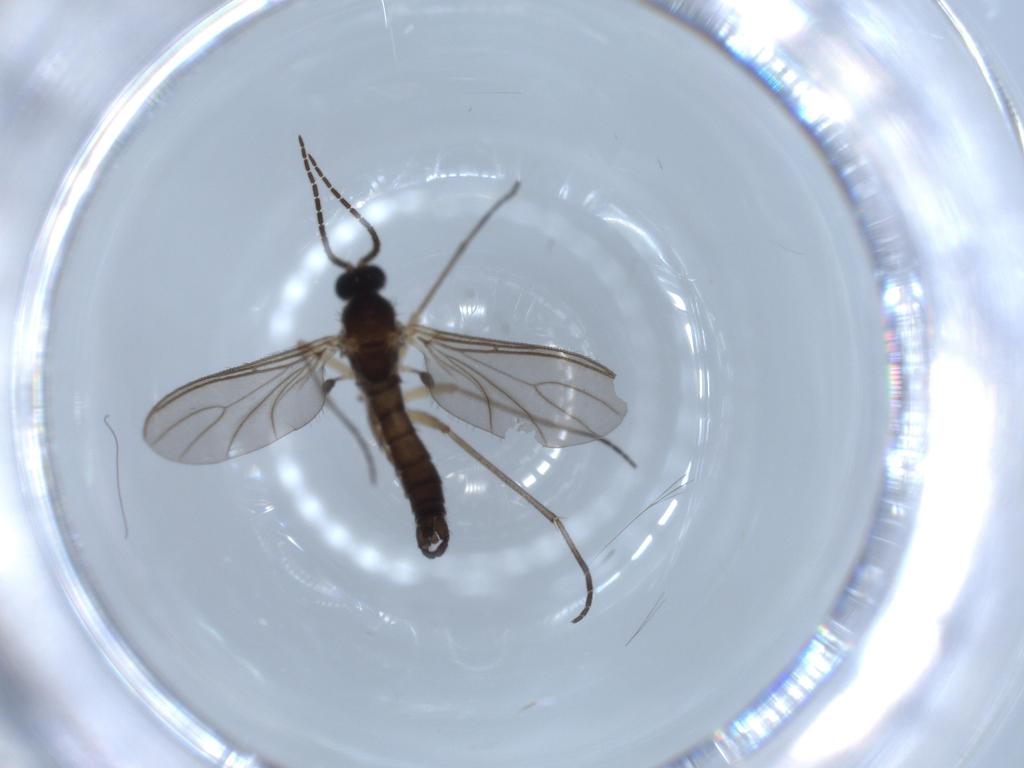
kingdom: Animalia
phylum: Arthropoda
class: Insecta
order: Diptera
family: Sciaridae
